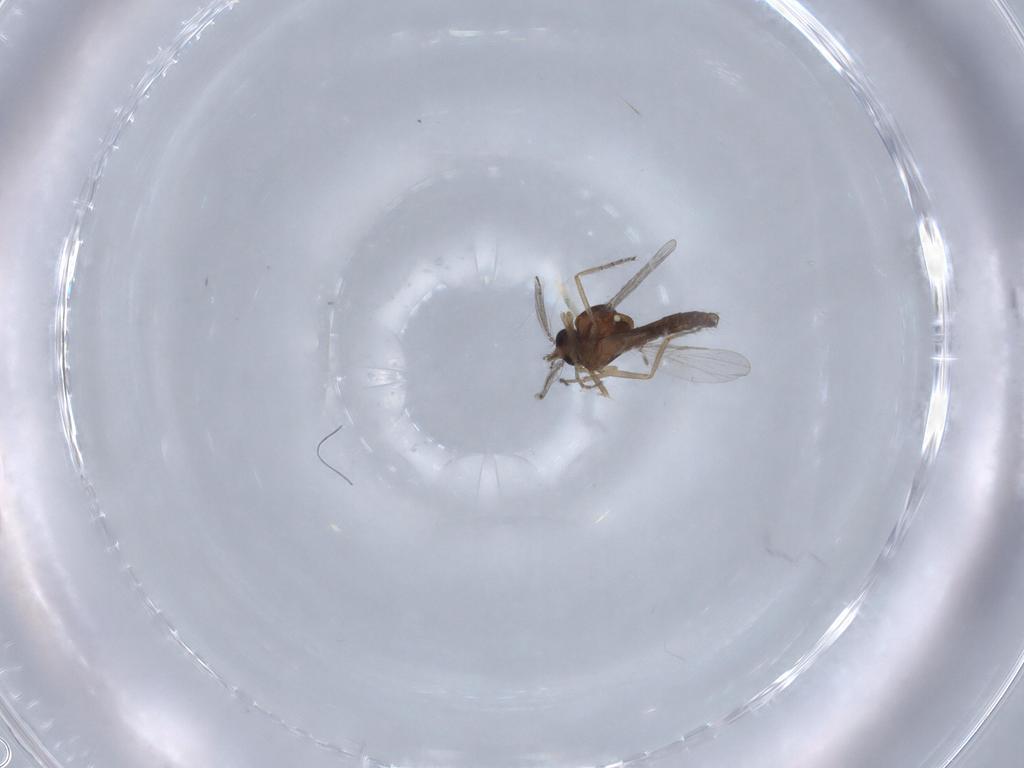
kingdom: Animalia
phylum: Arthropoda
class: Insecta
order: Diptera
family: Ceratopogonidae
